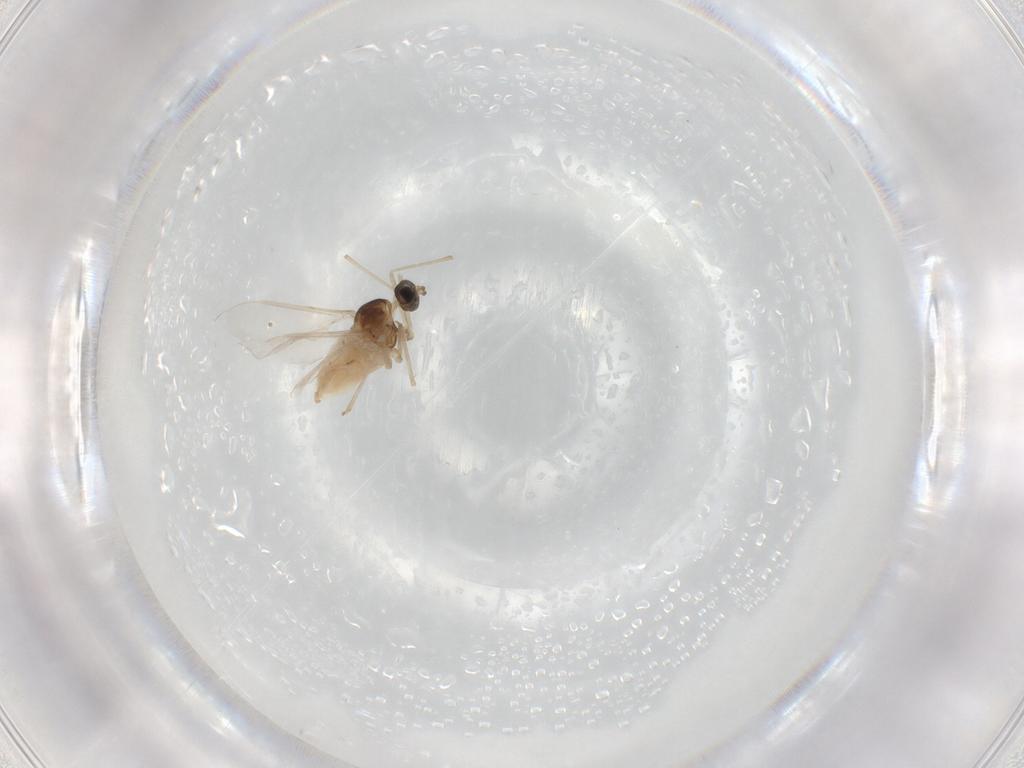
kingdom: Animalia
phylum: Arthropoda
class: Insecta
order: Diptera
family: Cecidomyiidae
